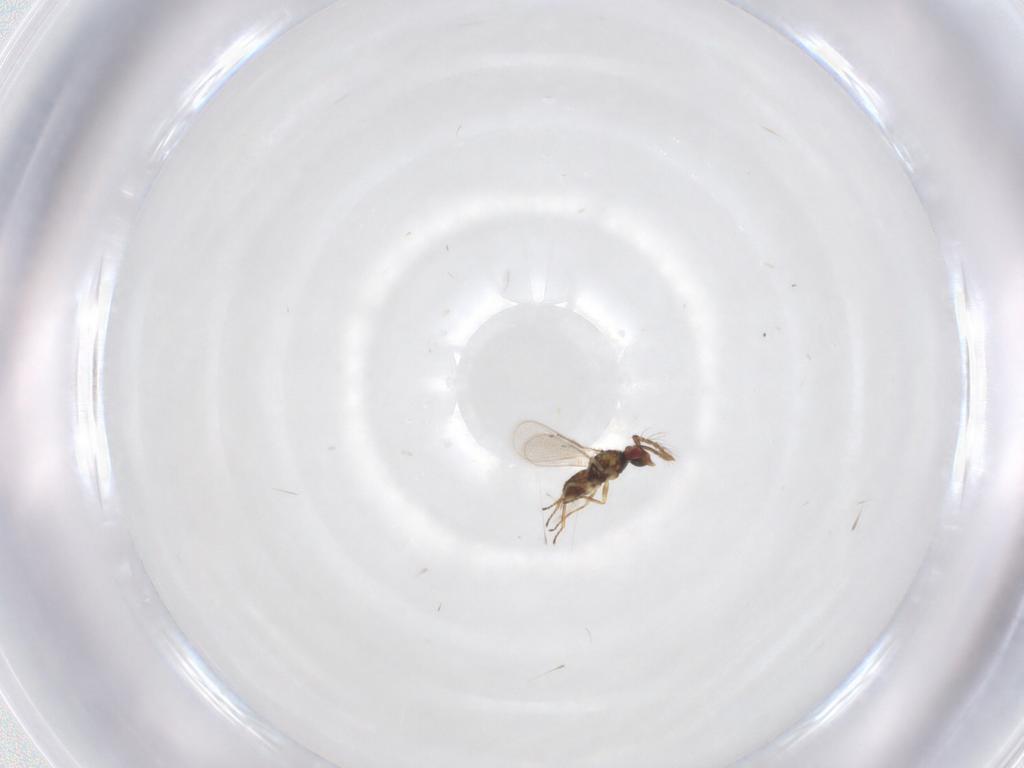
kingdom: Animalia
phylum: Arthropoda
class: Insecta
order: Hymenoptera
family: Eulophidae
